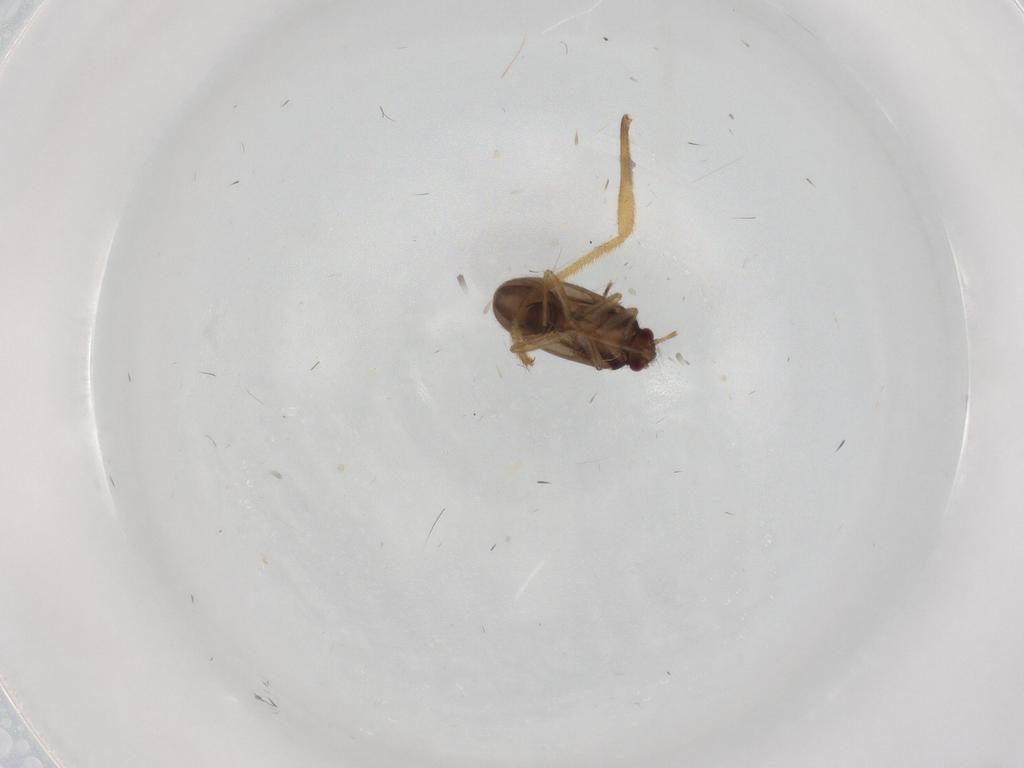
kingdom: Animalia
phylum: Arthropoda
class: Insecta
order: Hemiptera
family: Ceratocombidae
